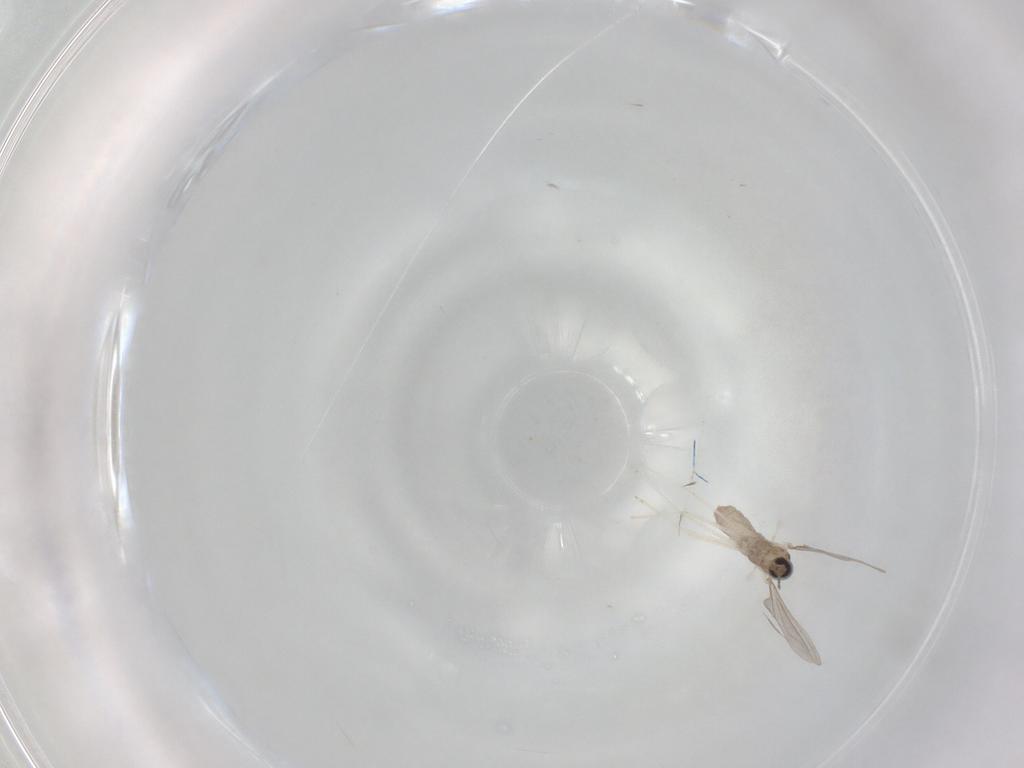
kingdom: Animalia
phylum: Arthropoda
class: Insecta
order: Diptera
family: Cecidomyiidae
